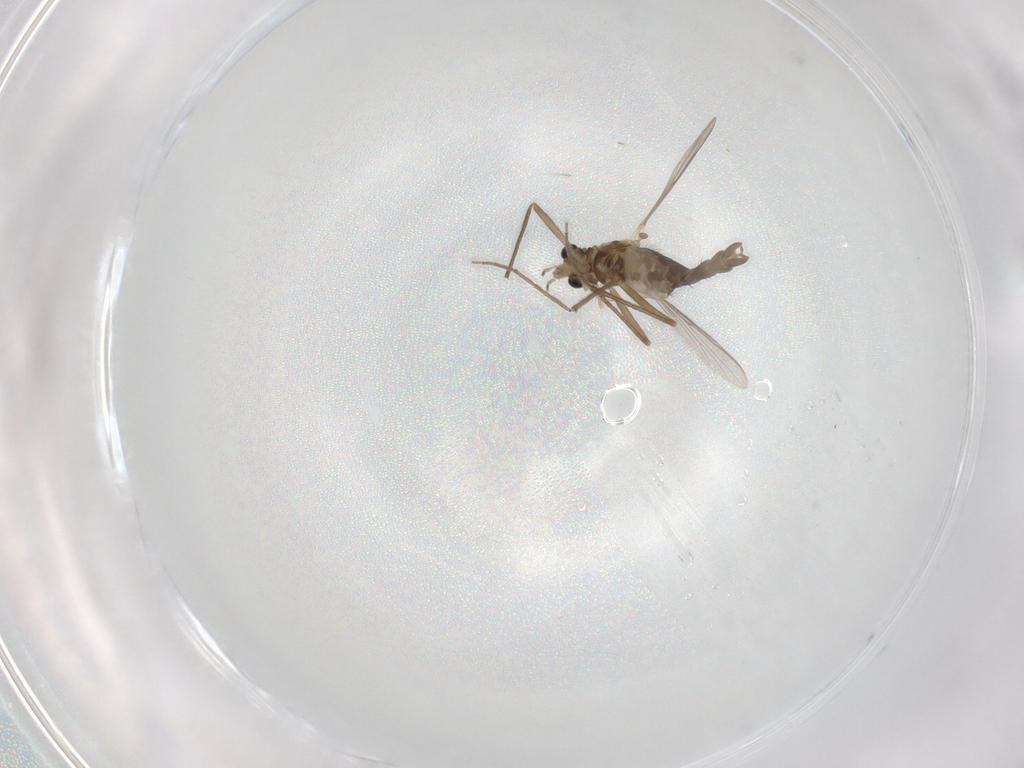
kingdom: Animalia
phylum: Arthropoda
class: Insecta
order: Diptera
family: Chironomidae
